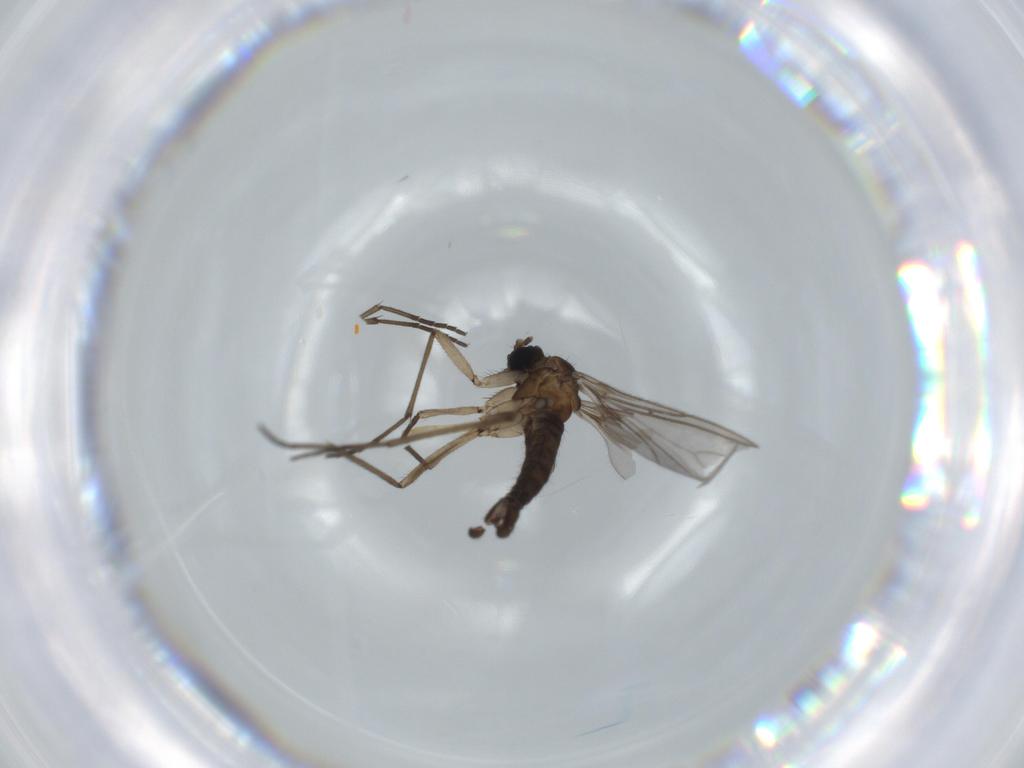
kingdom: Animalia
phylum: Arthropoda
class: Insecta
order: Diptera
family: Ceratopogonidae
